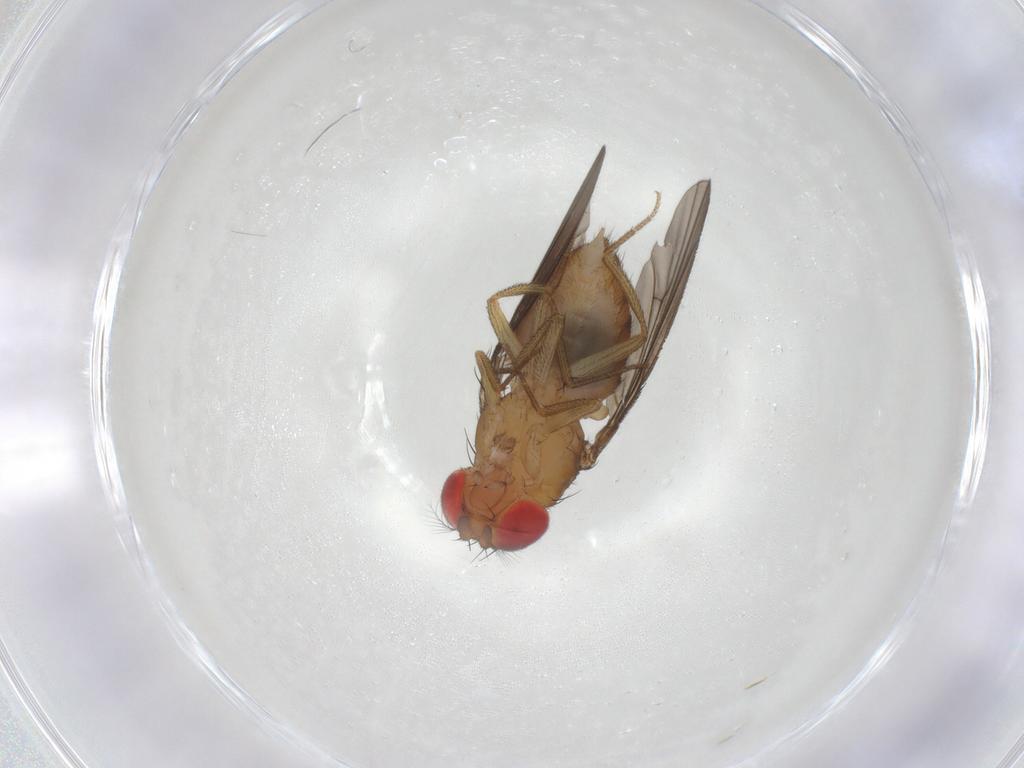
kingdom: Animalia
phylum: Arthropoda
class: Insecta
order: Diptera
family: Drosophilidae
